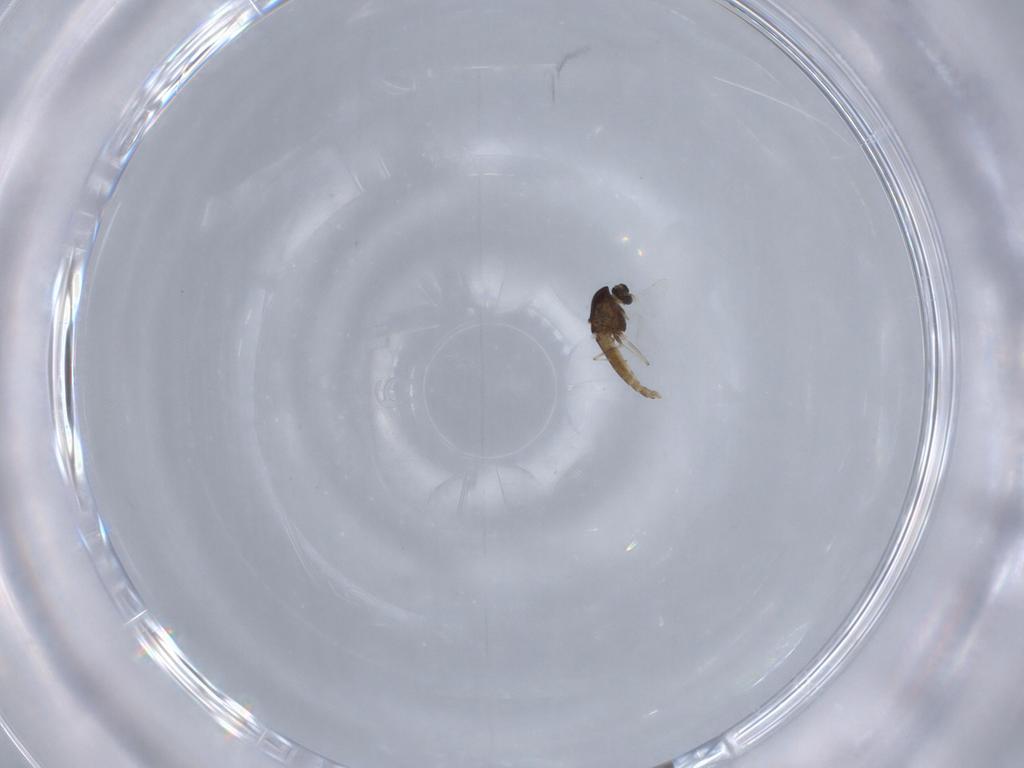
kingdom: Animalia
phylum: Arthropoda
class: Insecta
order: Diptera
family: Chironomidae
